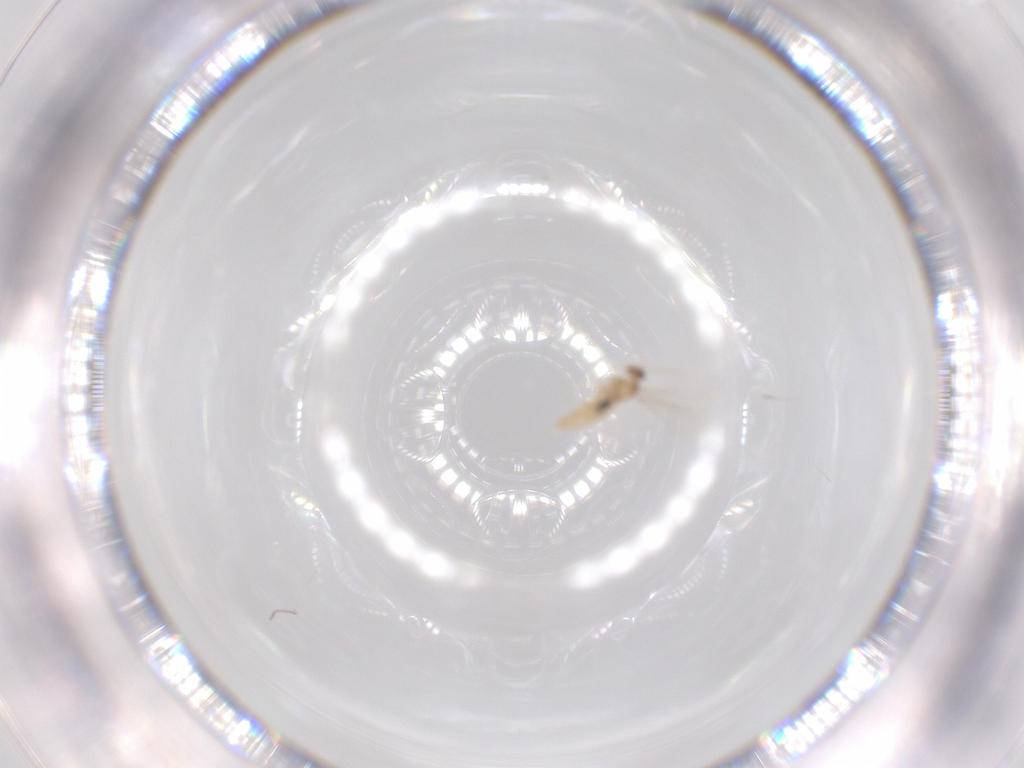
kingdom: Animalia
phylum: Arthropoda
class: Insecta
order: Diptera
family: Cecidomyiidae
